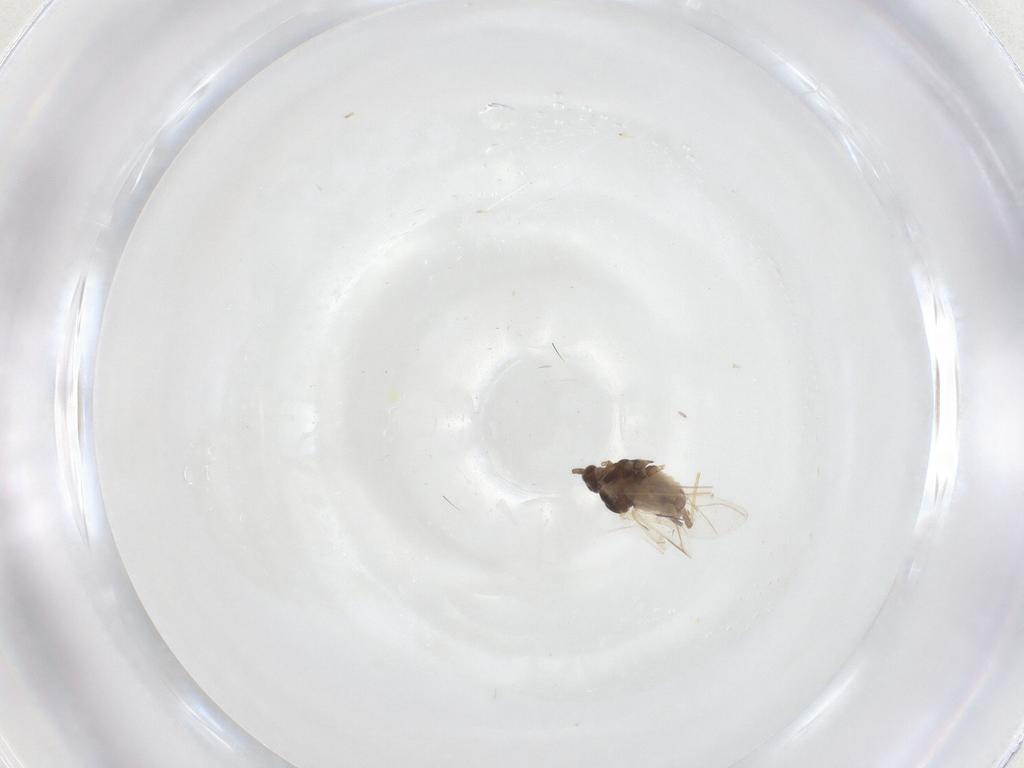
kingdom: Animalia
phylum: Arthropoda
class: Insecta
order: Hemiptera
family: Aphididae
